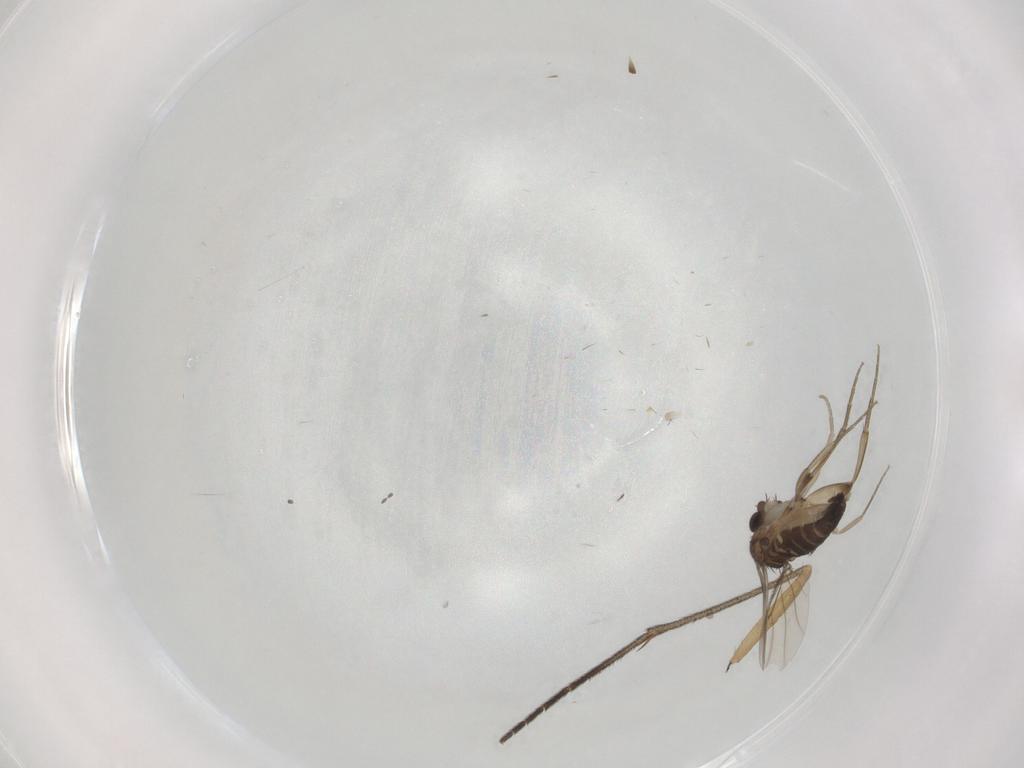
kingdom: Animalia
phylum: Arthropoda
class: Insecta
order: Diptera
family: Phoridae
